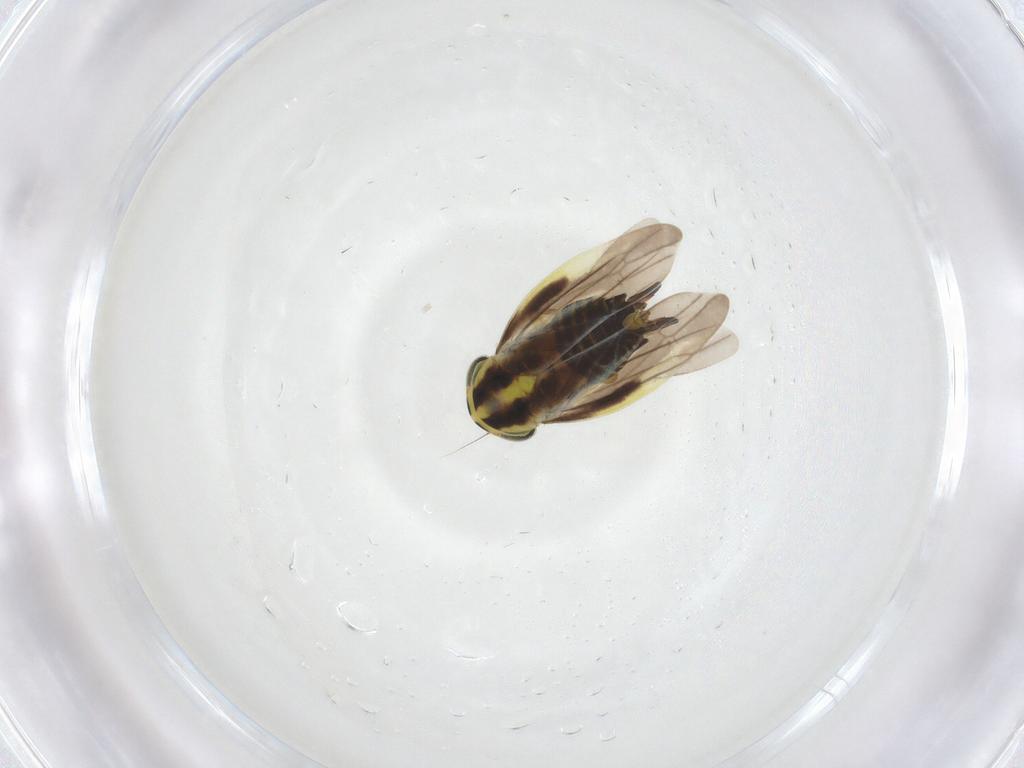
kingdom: Animalia
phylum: Arthropoda
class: Insecta
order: Hemiptera
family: Cicadellidae
